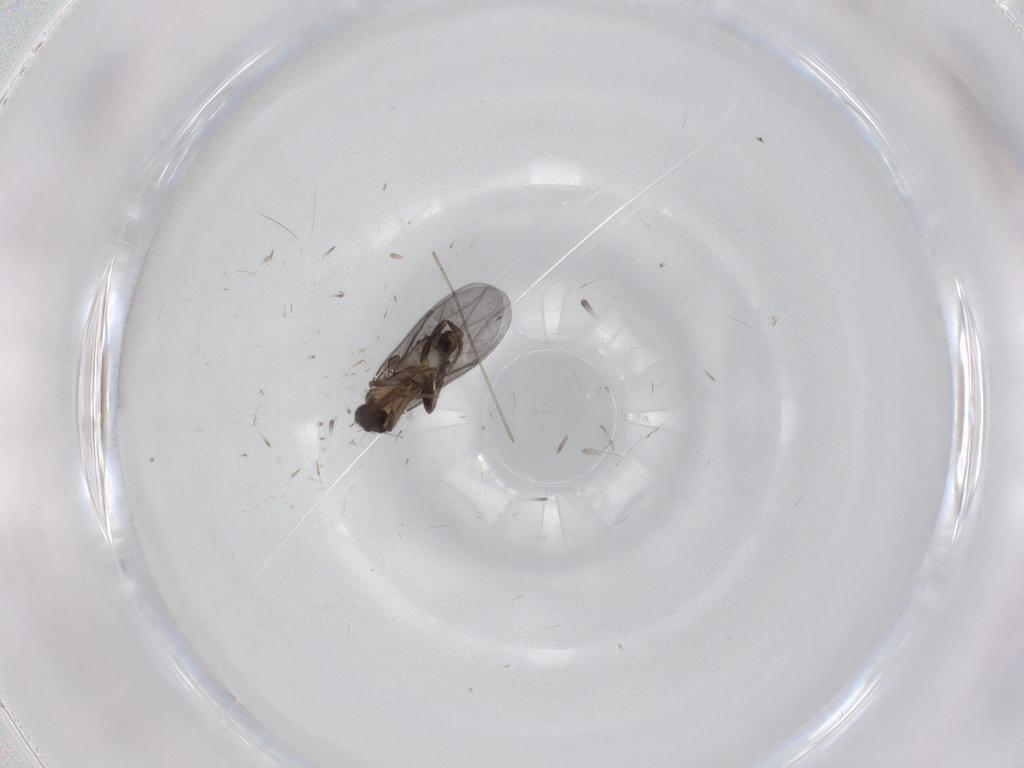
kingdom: Animalia
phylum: Arthropoda
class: Insecta
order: Diptera
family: Phoridae
